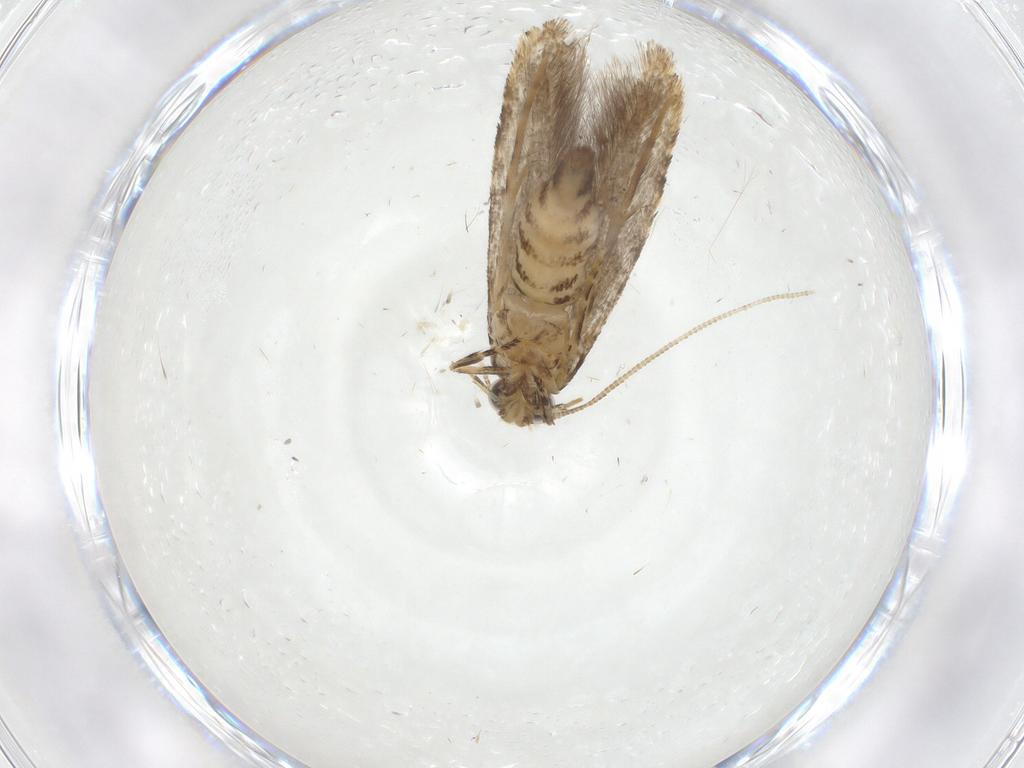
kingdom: Animalia
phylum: Arthropoda
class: Insecta
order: Lepidoptera
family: Tineidae
